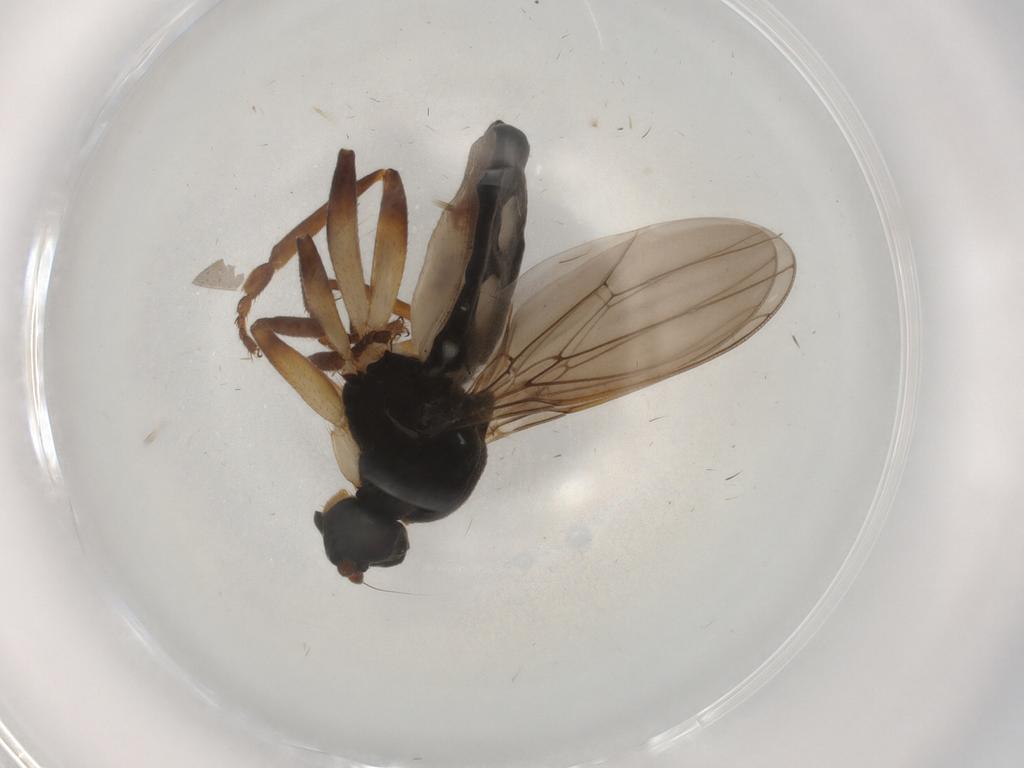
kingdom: Animalia
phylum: Arthropoda
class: Insecta
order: Diptera
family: Sphaeroceridae
